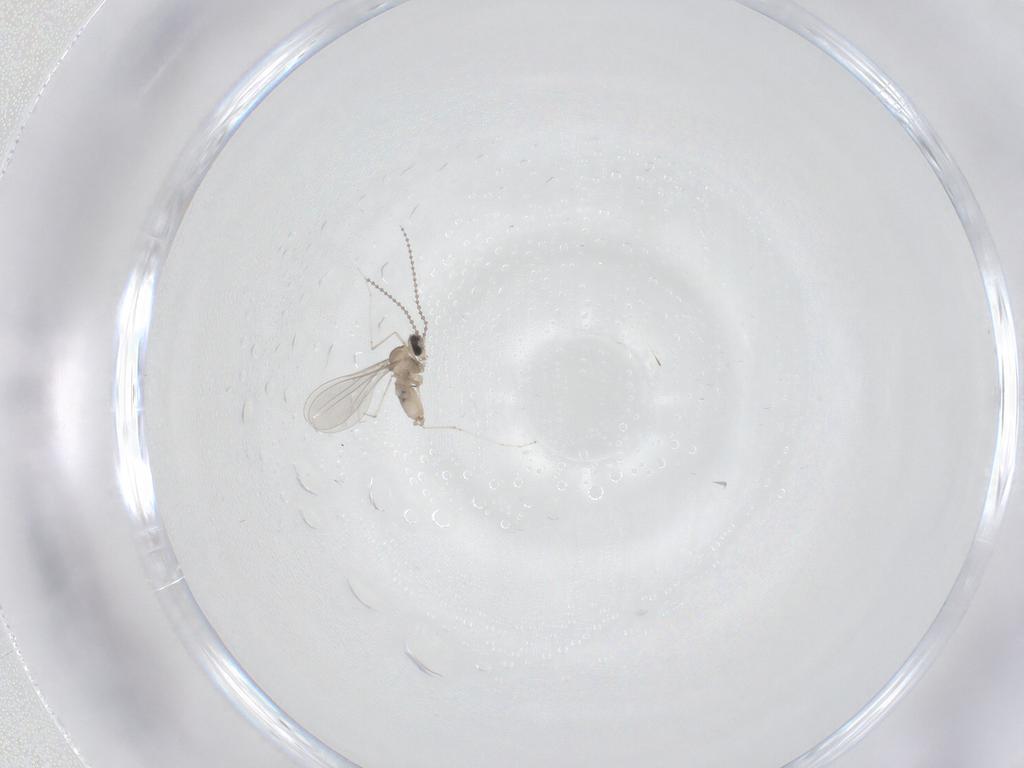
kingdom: Animalia
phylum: Arthropoda
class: Insecta
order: Diptera
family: Cecidomyiidae
